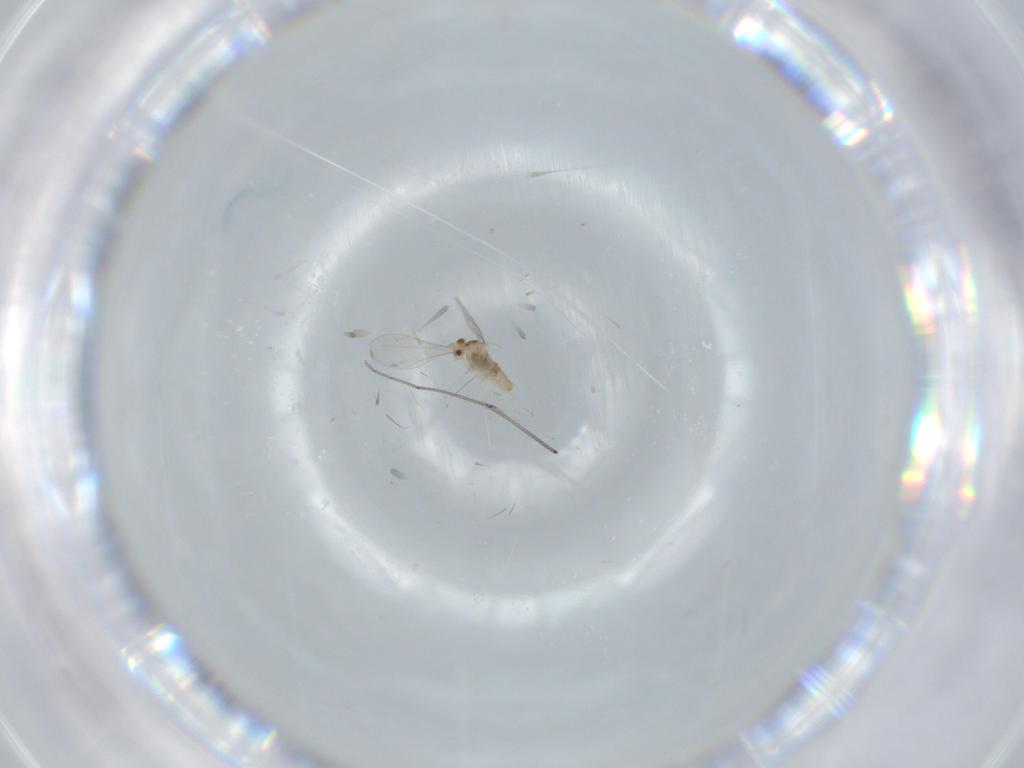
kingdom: Animalia
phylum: Arthropoda
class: Insecta
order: Diptera
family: Cecidomyiidae
